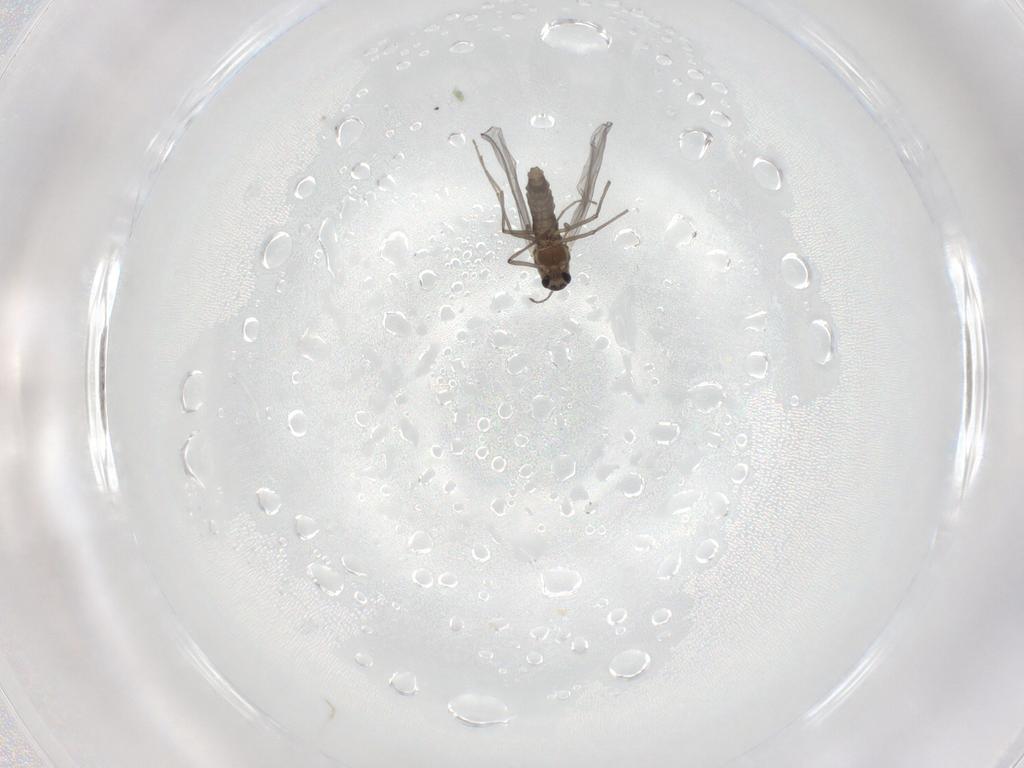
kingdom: Animalia
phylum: Arthropoda
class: Insecta
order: Diptera
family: Chironomidae
